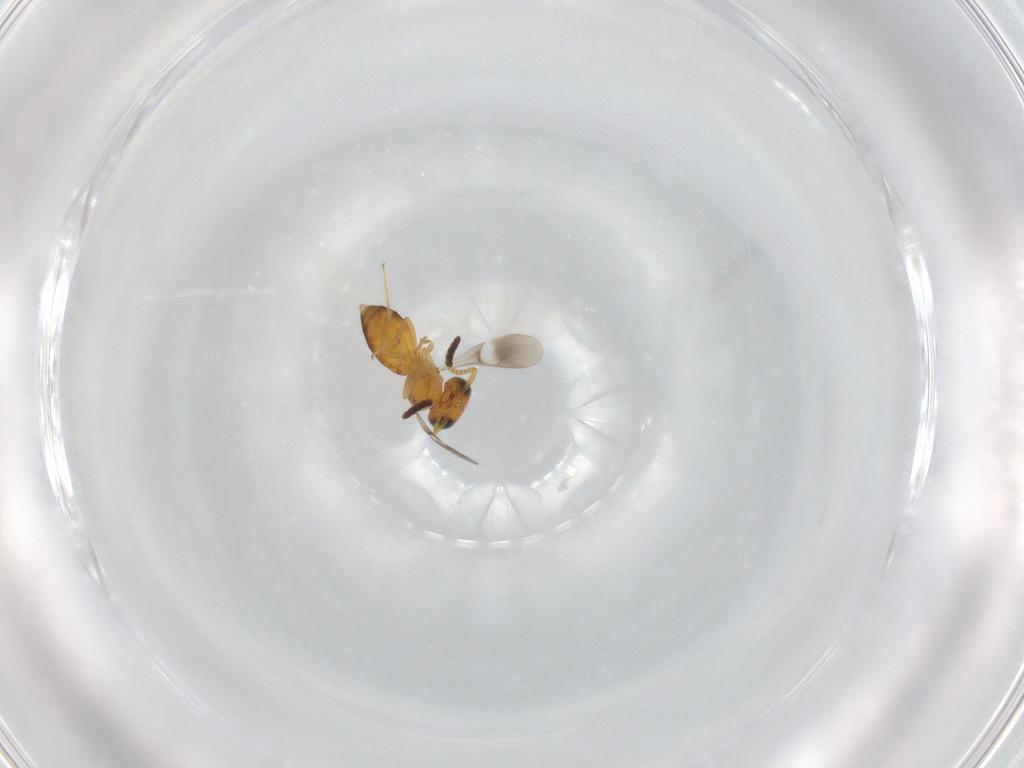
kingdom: Animalia
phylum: Arthropoda
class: Insecta
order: Hymenoptera
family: Scelionidae
